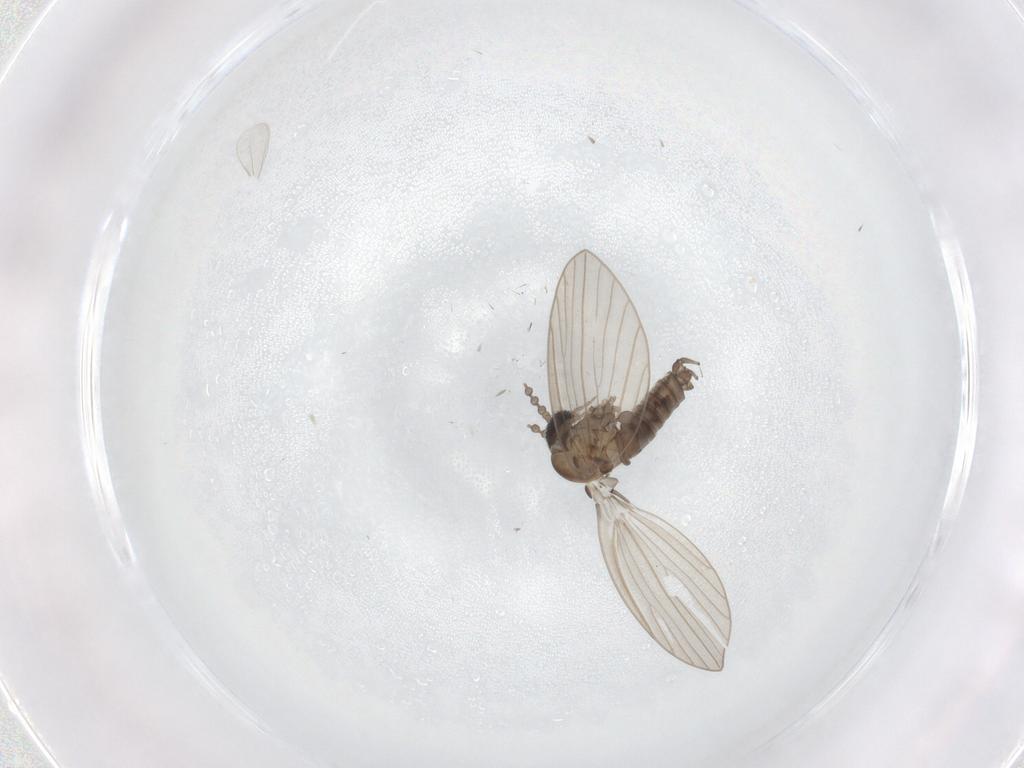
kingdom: Animalia
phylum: Arthropoda
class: Insecta
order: Diptera
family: Psychodidae
